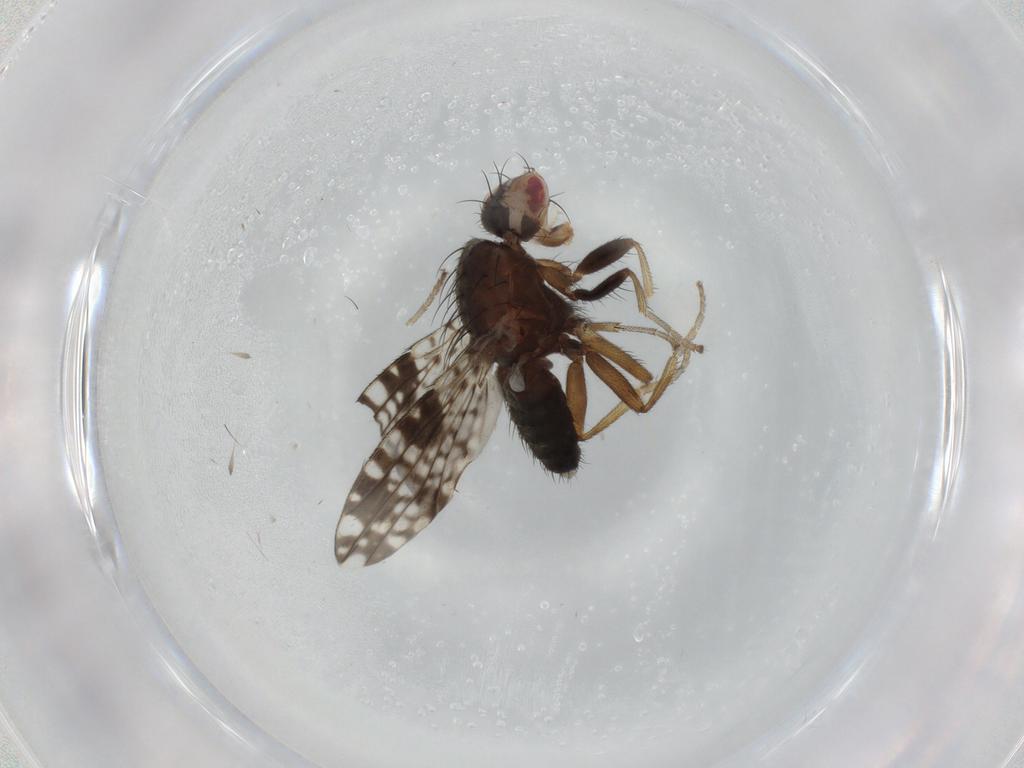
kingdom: Animalia
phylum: Arthropoda
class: Insecta
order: Diptera
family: Tephritidae
